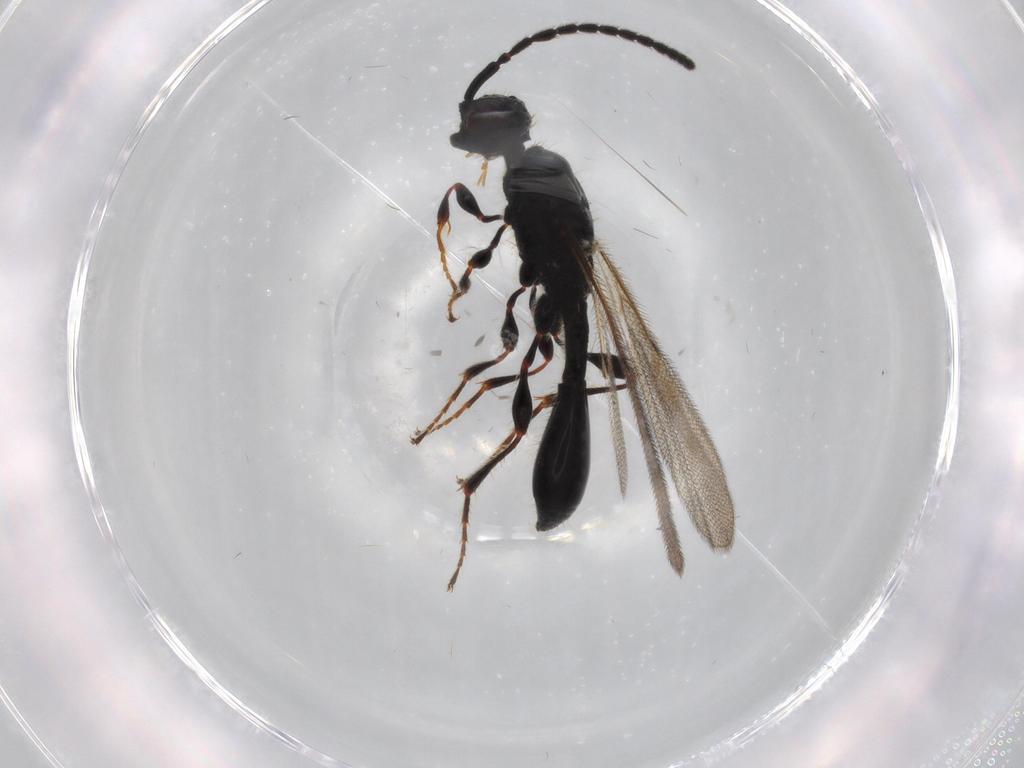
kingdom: Animalia
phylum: Arthropoda
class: Insecta
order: Hymenoptera
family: Diapriidae
